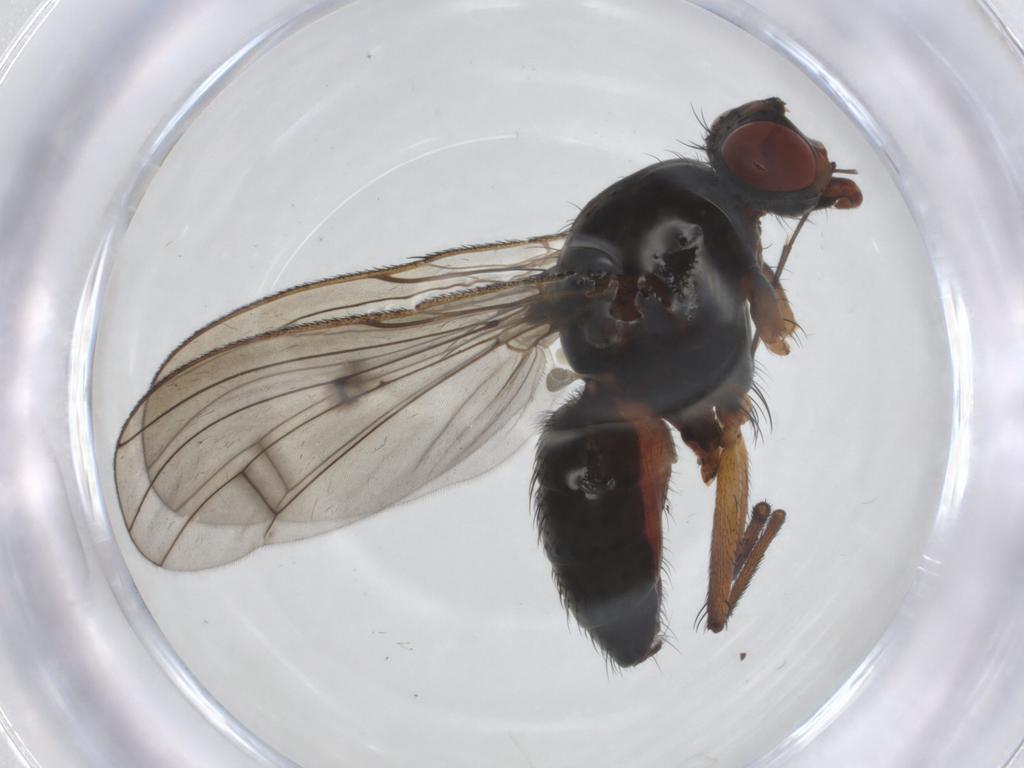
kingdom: Animalia
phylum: Arthropoda
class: Insecta
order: Diptera
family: Anthomyiidae
